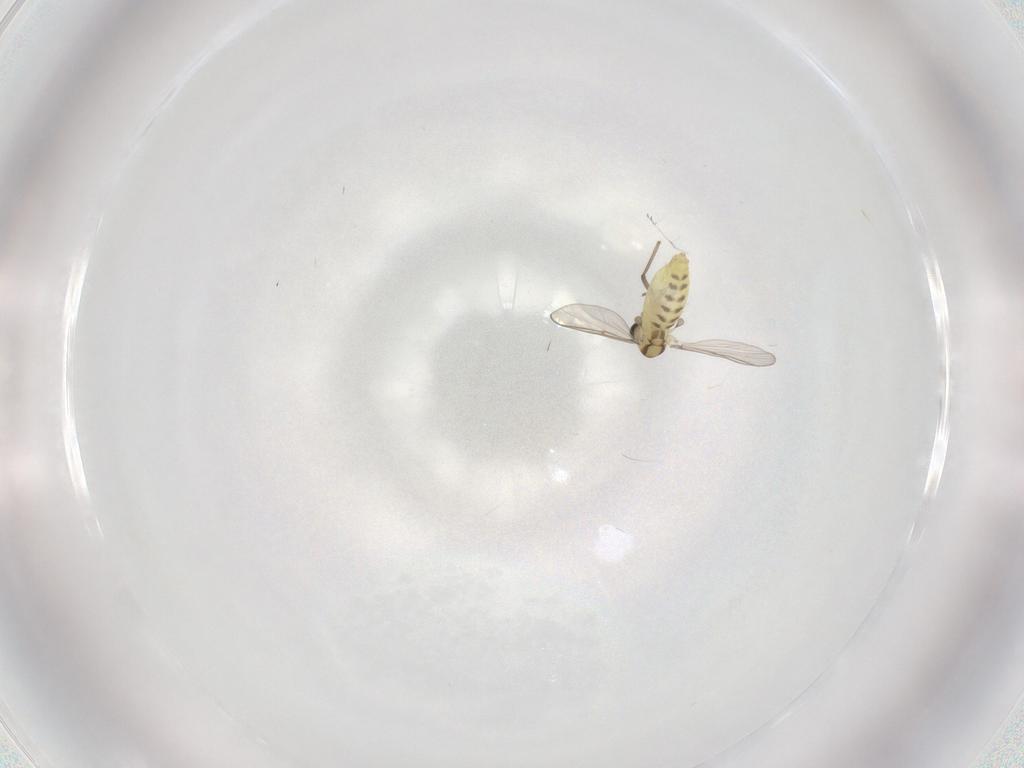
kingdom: Animalia
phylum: Arthropoda
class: Insecta
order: Diptera
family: Chironomidae
